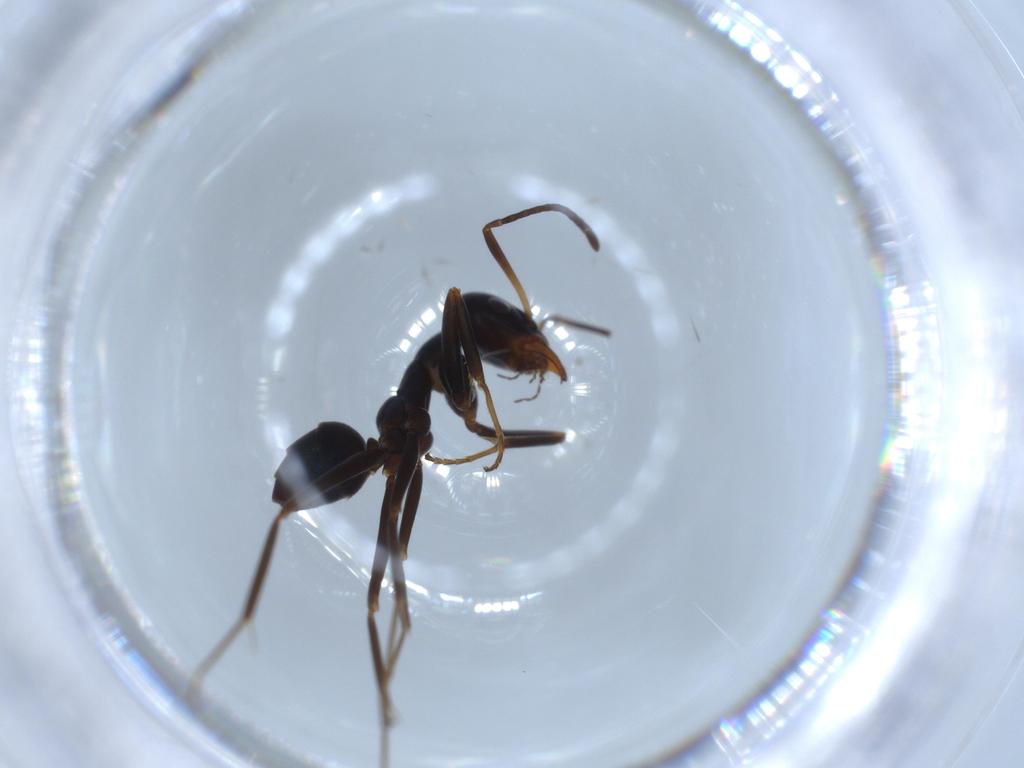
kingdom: Animalia
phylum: Arthropoda
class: Insecta
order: Hymenoptera
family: Formicidae
